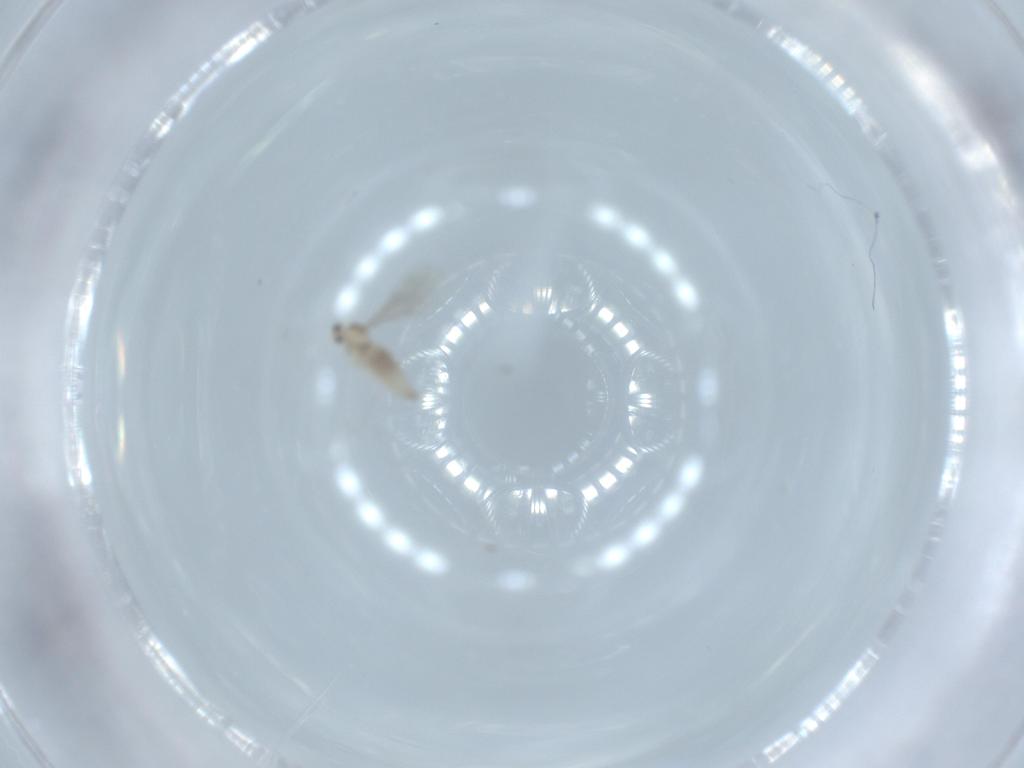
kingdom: Animalia
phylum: Arthropoda
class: Insecta
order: Diptera
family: Cecidomyiidae
